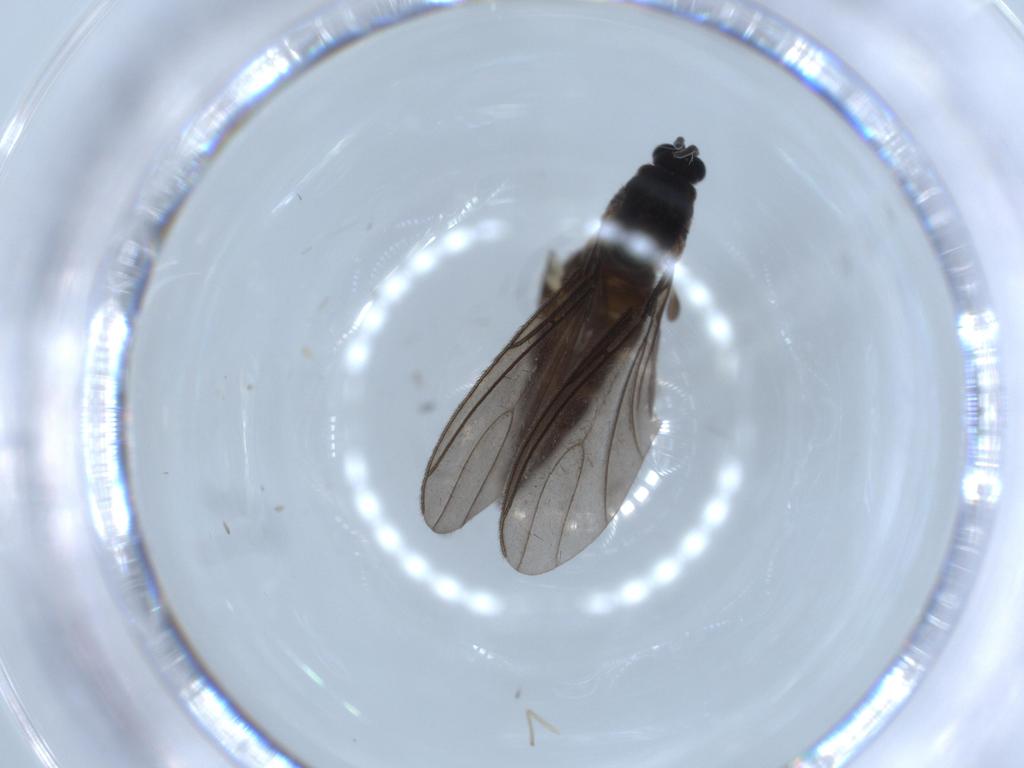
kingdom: Animalia
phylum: Arthropoda
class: Insecta
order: Diptera
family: Sciaridae
